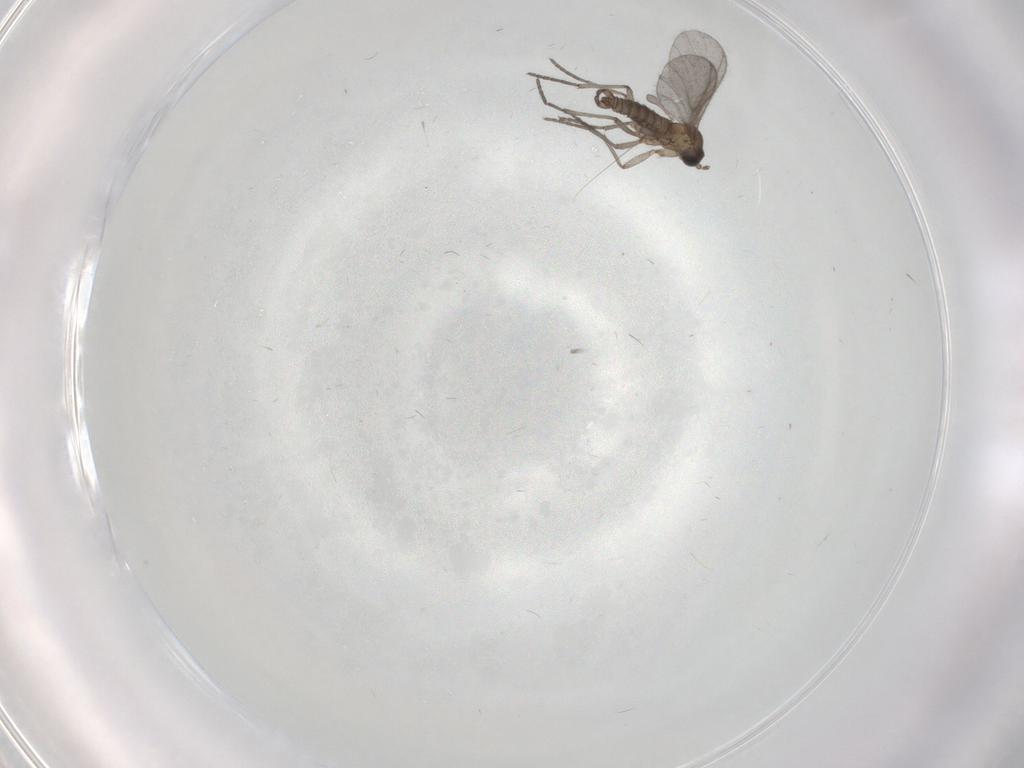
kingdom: Animalia
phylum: Arthropoda
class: Insecta
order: Diptera
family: Sciaridae
